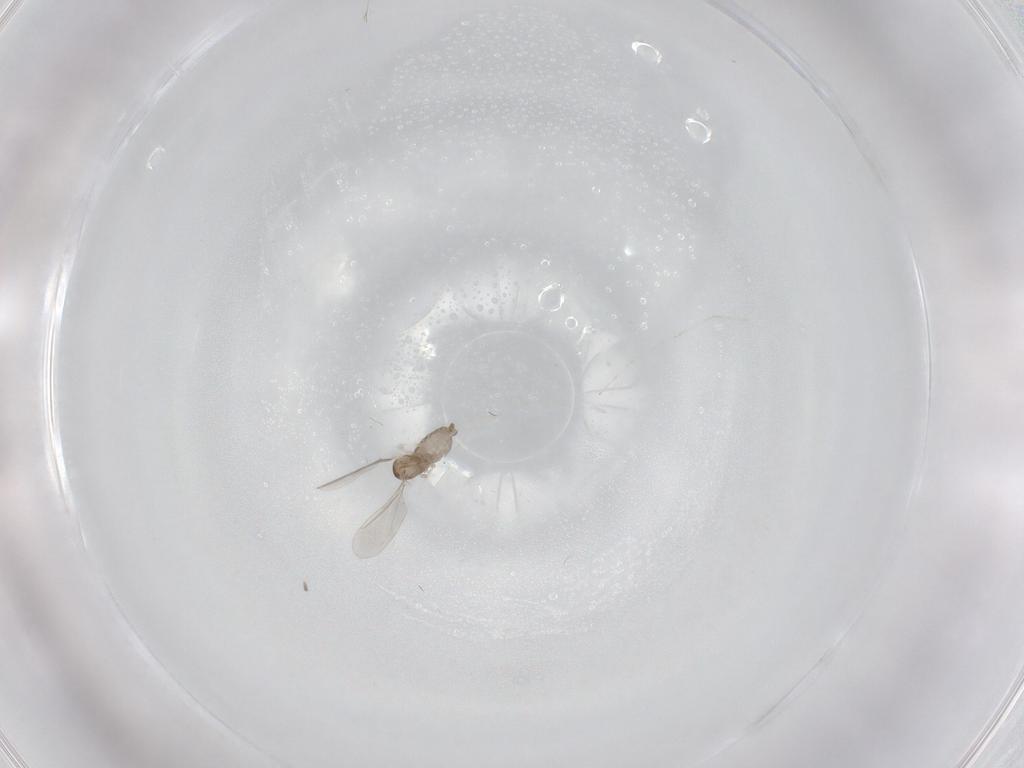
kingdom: Animalia
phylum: Arthropoda
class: Insecta
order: Diptera
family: Cecidomyiidae
